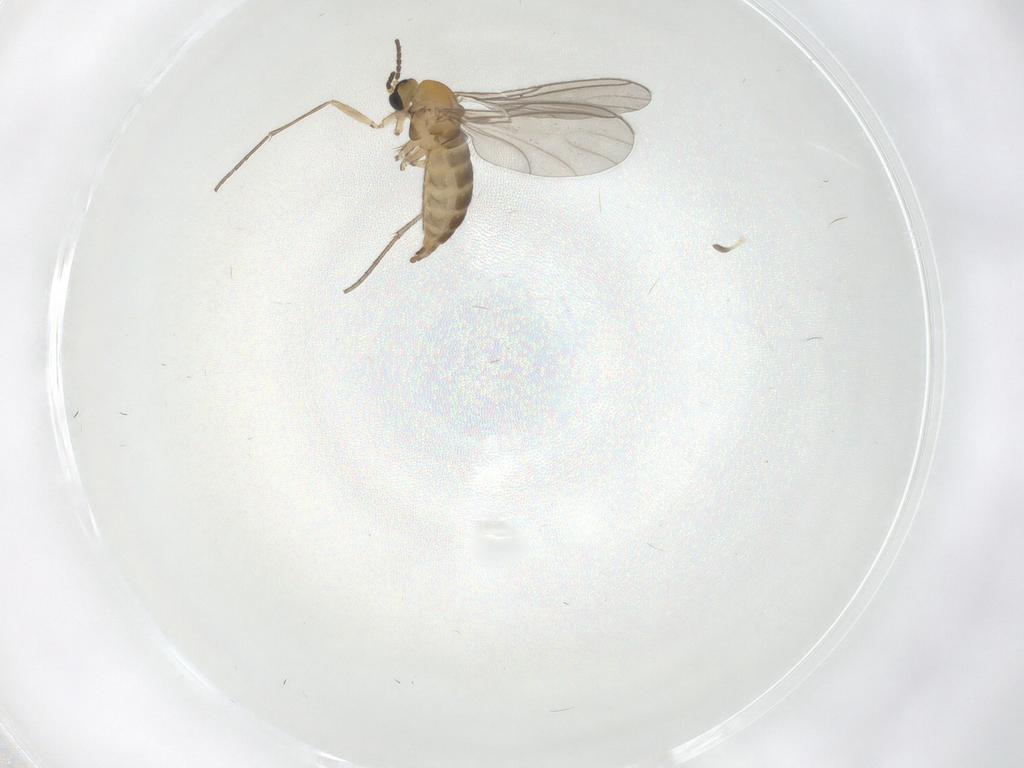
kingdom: Animalia
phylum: Arthropoda
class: Insecta
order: Diptera
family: Sciaridae
